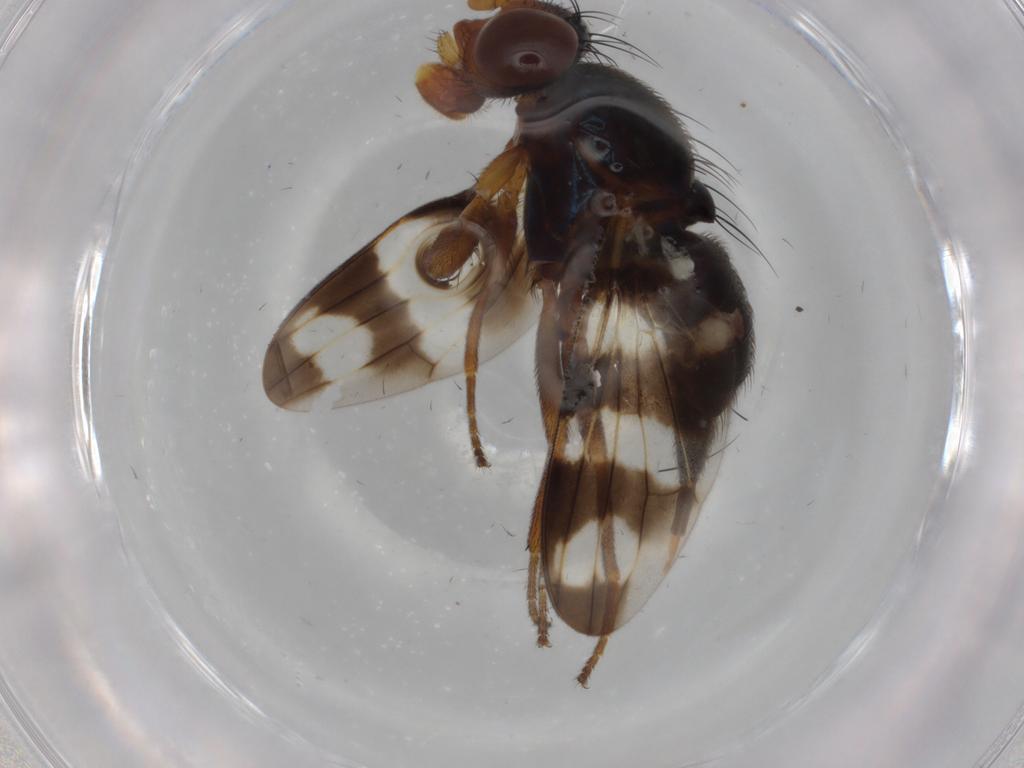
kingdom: Animalia
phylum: Arthropoda
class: Insecta
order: Diptera
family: Ulidiidae
